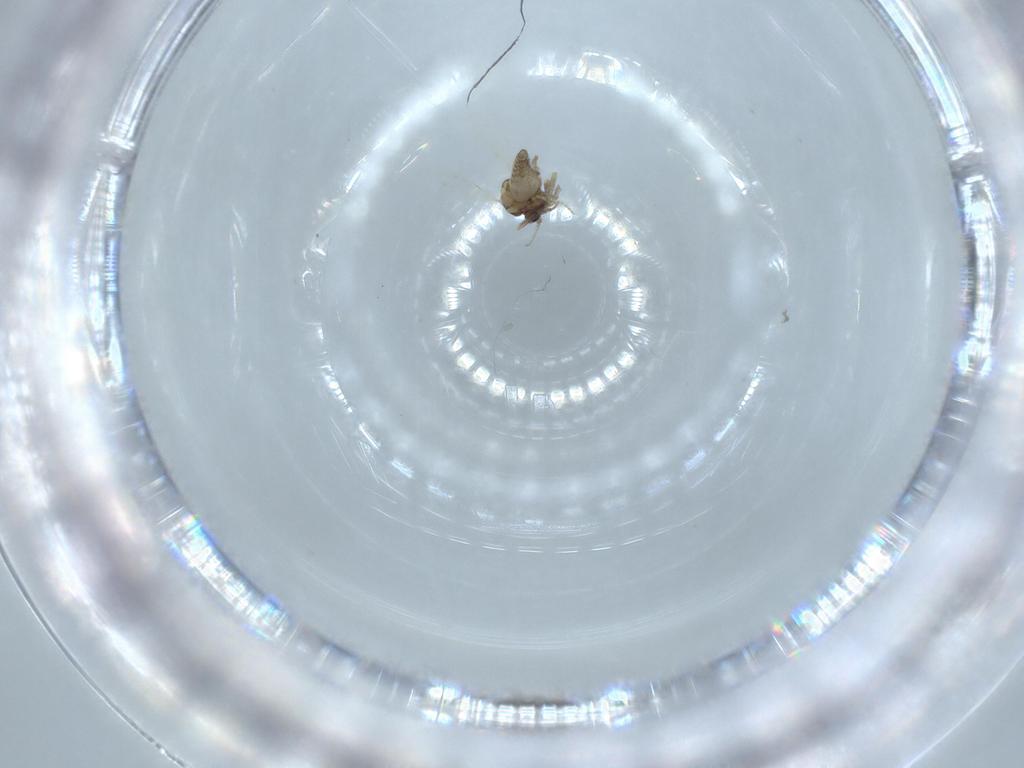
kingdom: Animalia
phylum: Arthropoda
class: Insecta
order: Diptera
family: Ceratopogonidae
